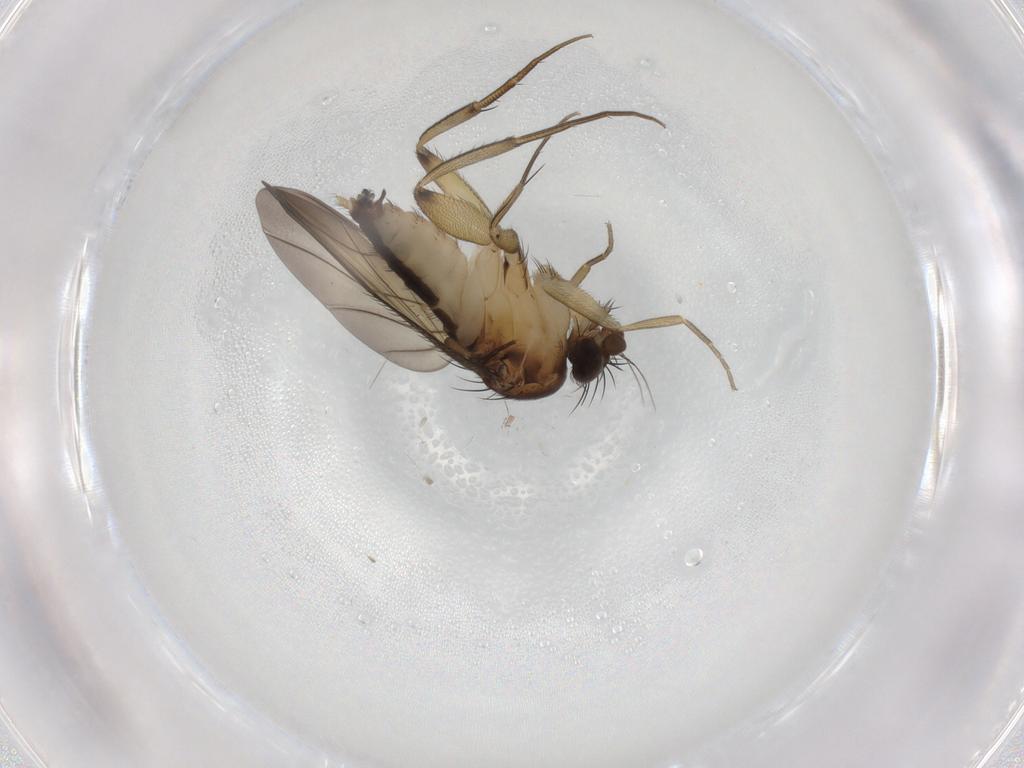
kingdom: Animalia
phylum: Arthropoda
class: Insecta
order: Diptera
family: Phoridae
